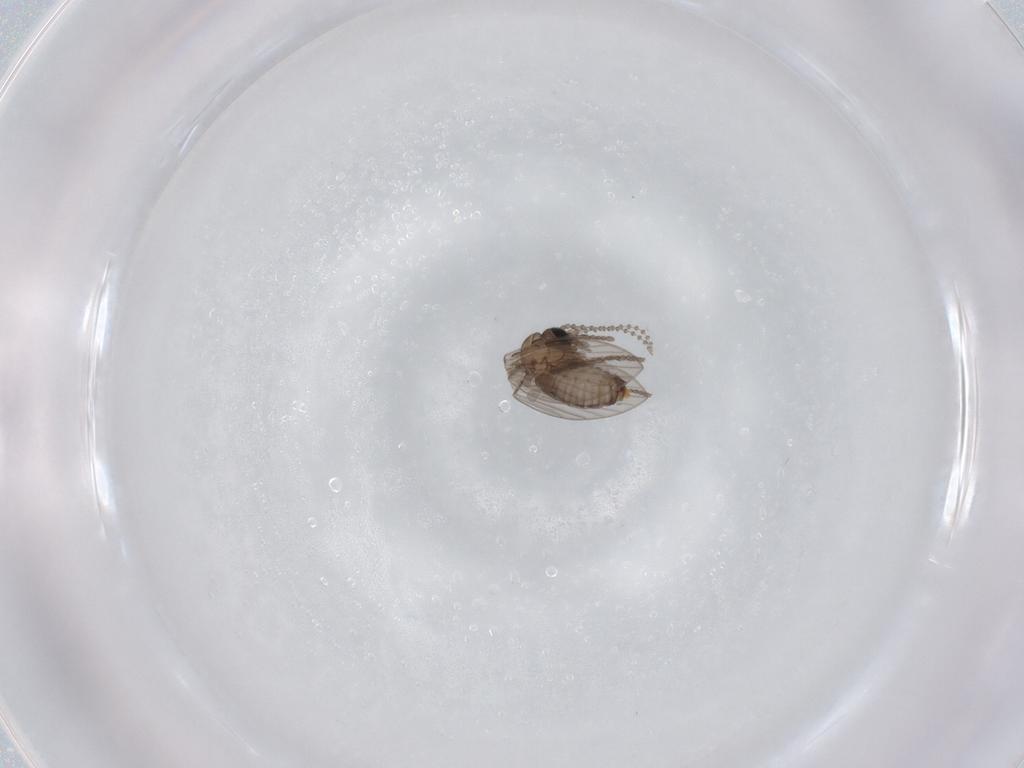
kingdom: Animalia
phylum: Arthropoda
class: Insecta
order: Diptera
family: Psychodidae
